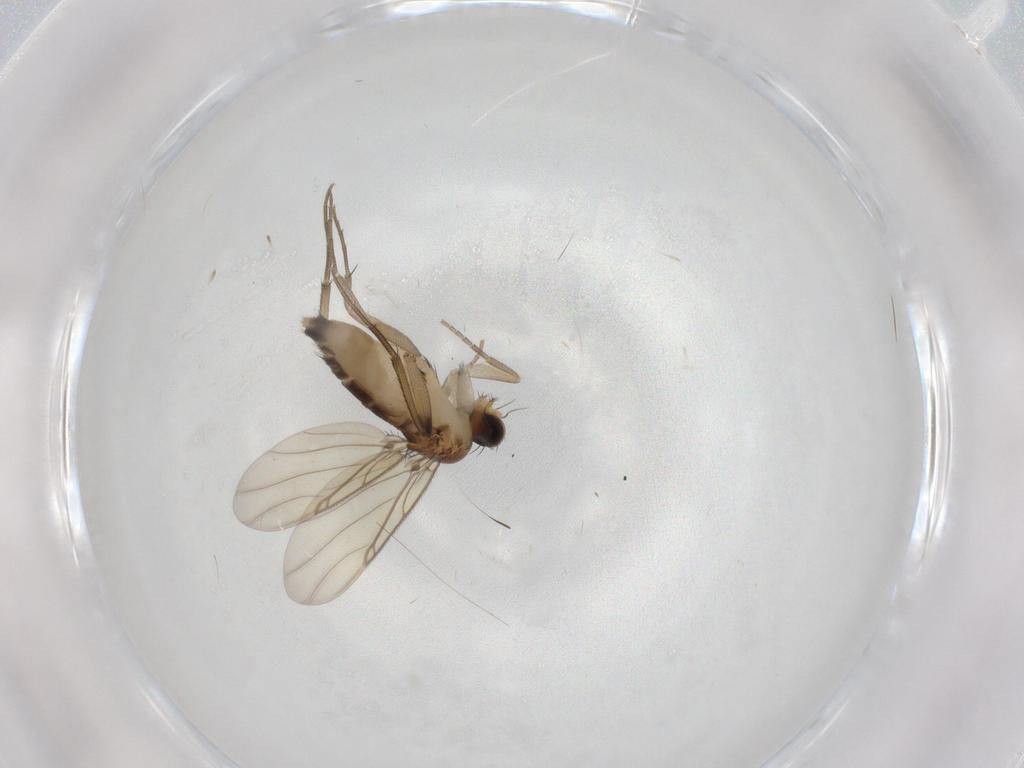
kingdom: Animalia
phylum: Arthropoda
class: Insecta
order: Diptera
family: Phoridae
